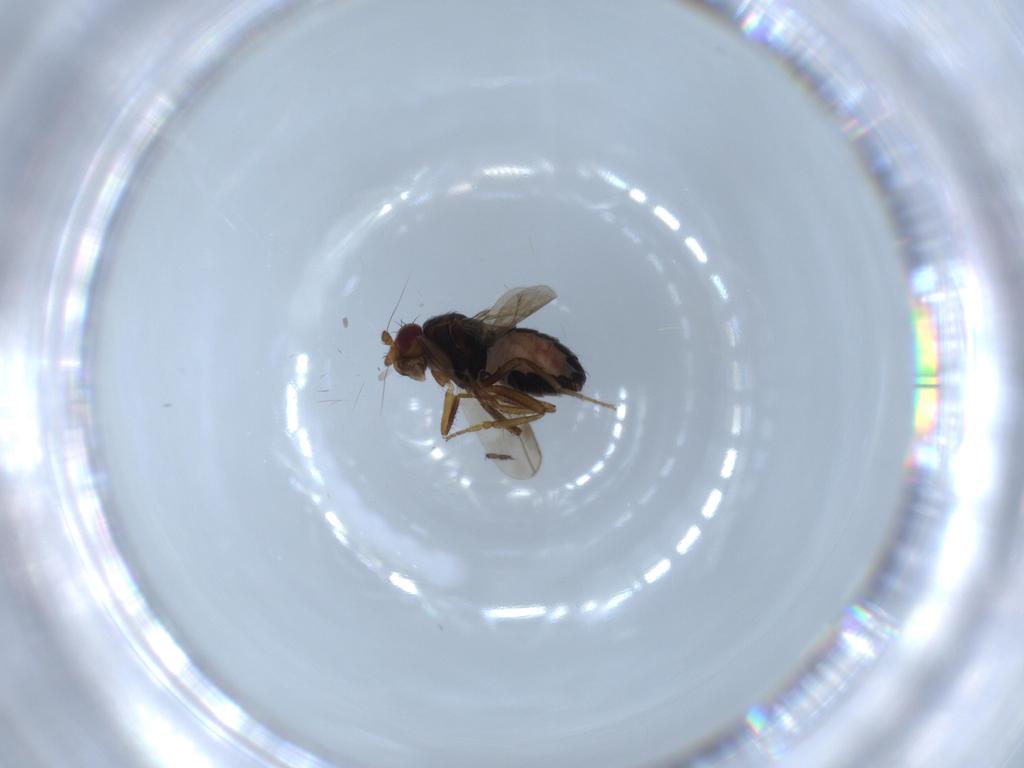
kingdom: Animalia
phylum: Arthropoda
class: Insecta
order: Diptera
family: Sphaeroceridae
